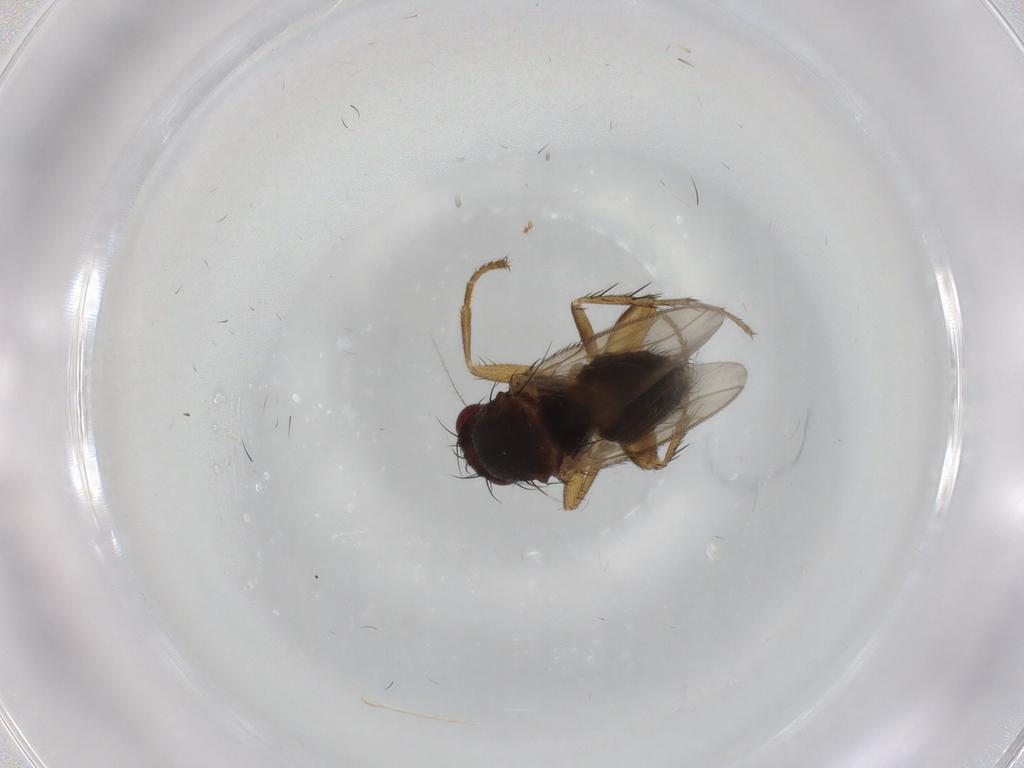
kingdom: Animalia
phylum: Arthropoda
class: Insecta
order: Diptera
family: Sphaeroceridae
